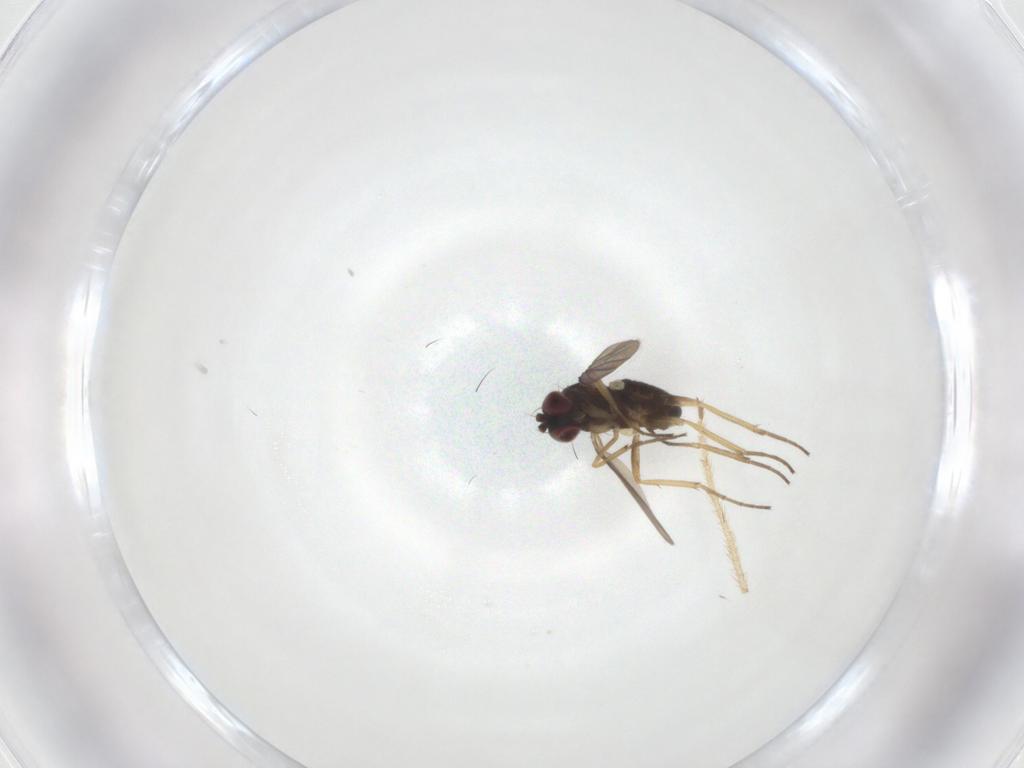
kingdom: Animalia
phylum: Arthropoda
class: Insecta
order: Diptera
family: Limoniidae
